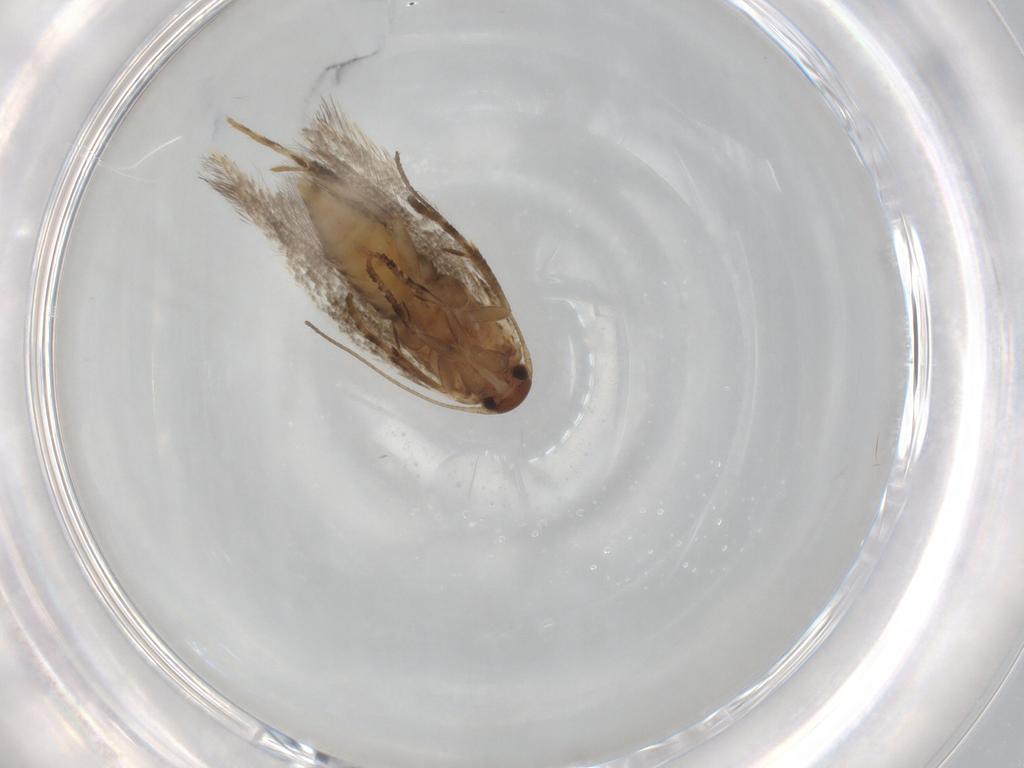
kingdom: Animalia
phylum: Arthropoda
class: Insecta
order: Lepidoptera
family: Elachistidae
